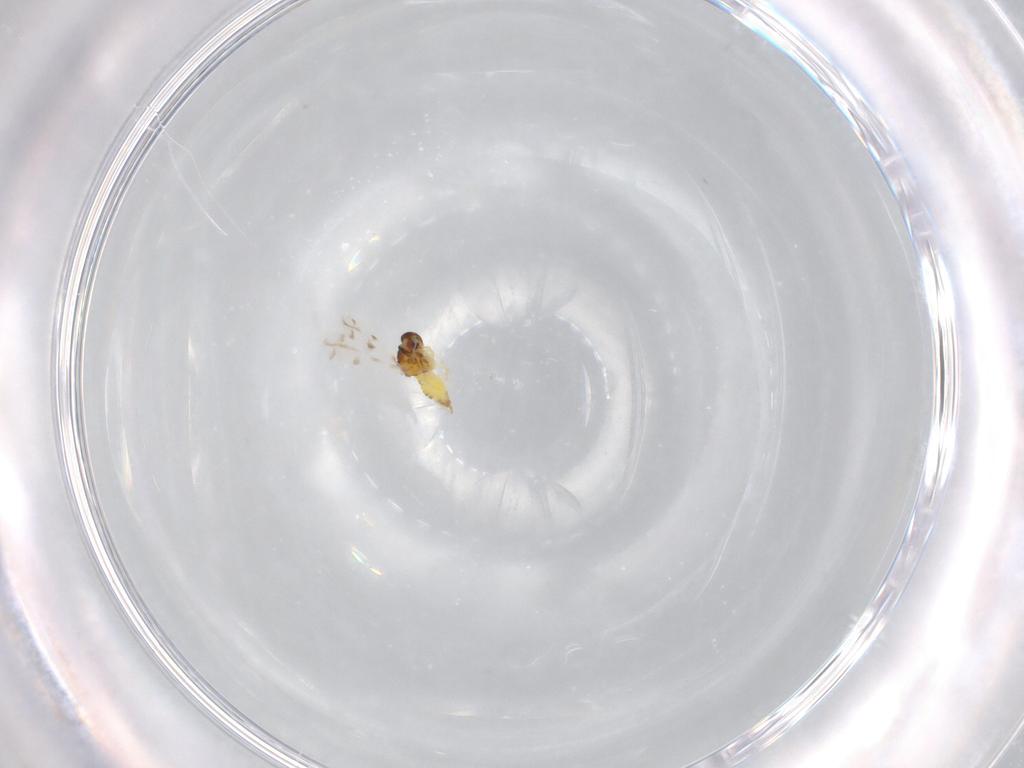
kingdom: Animalia
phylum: Arthropoda
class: Insecta
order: Hemiptera
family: Aleyrodidae
